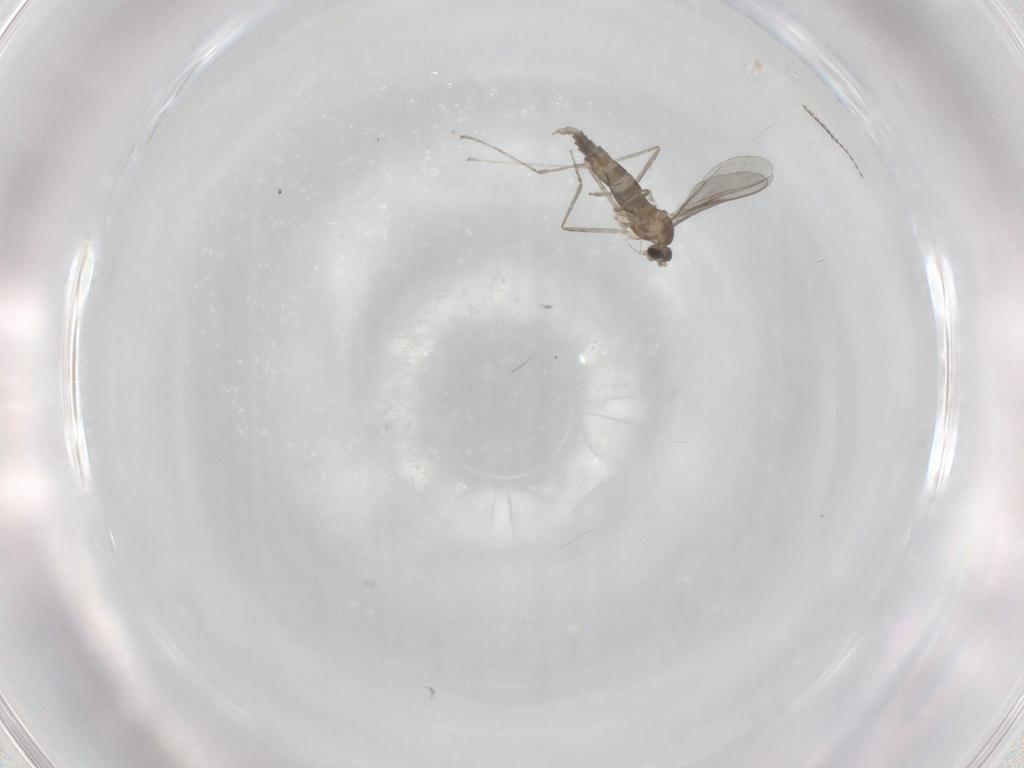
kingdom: Animalia
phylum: Arthropoda
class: Insecta
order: Diptera
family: Cecidomyiidae
